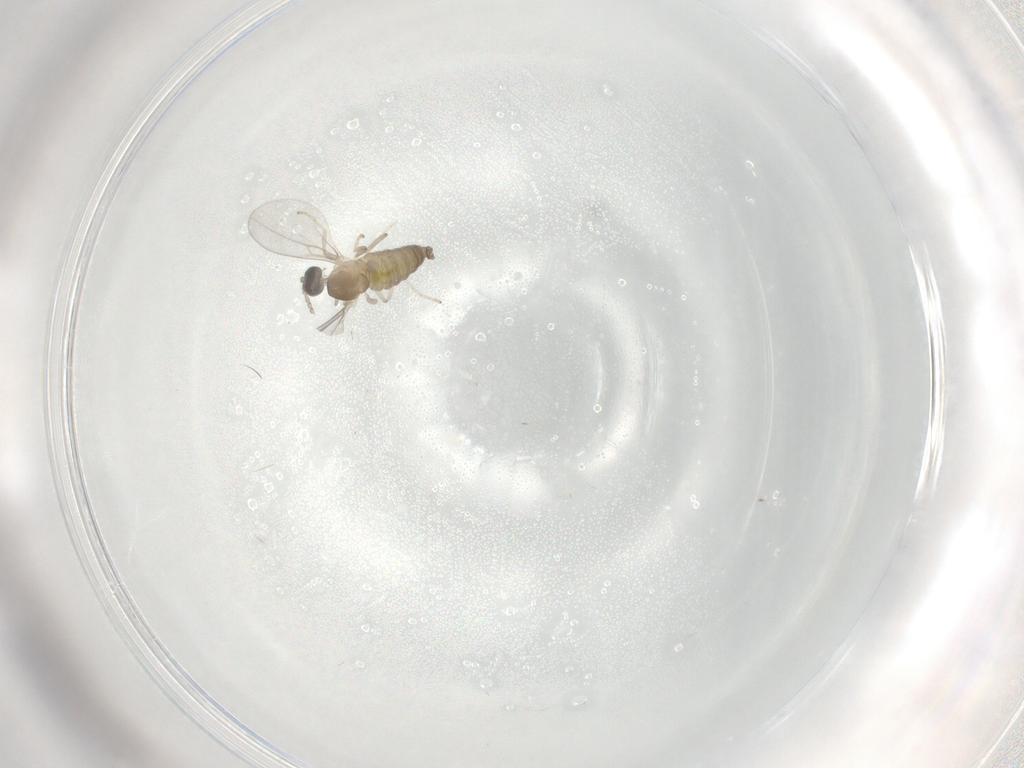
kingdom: Animalia
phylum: Arthropoda
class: Insecta
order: Diptera
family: Cecidomyiidae
